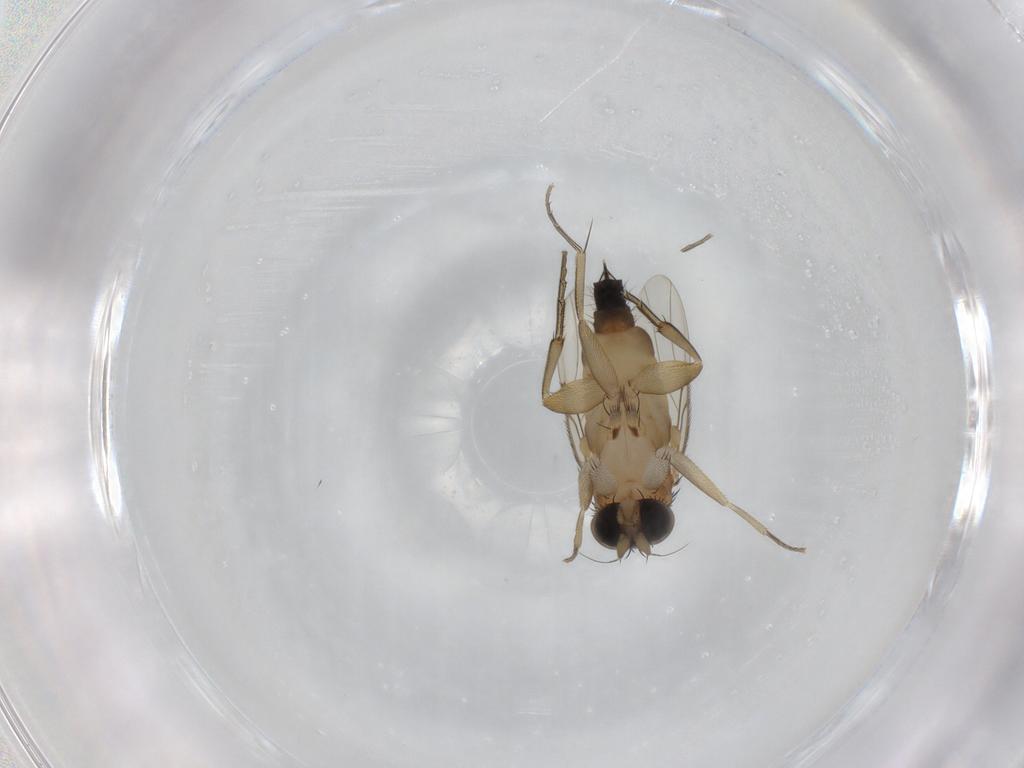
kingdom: Animalia
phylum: Arthropoda
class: Insecta
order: Diptera
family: Phoridae
